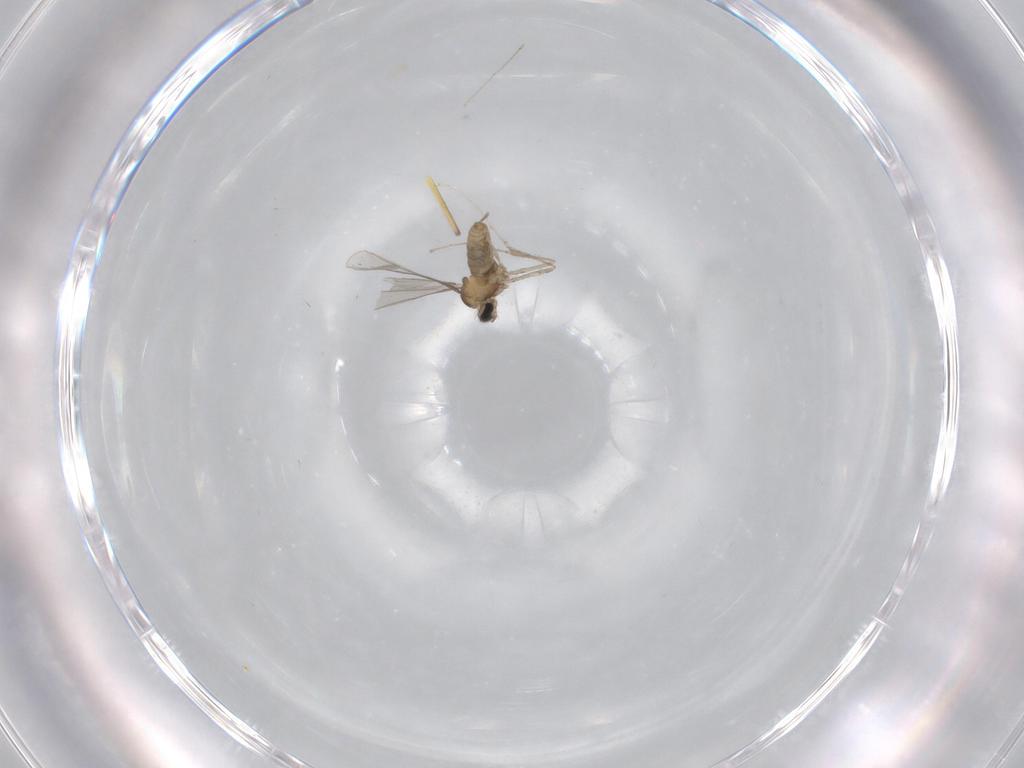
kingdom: Animalia
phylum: Arthropoda
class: Insecta
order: Diptera
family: Cecidomyiidae
